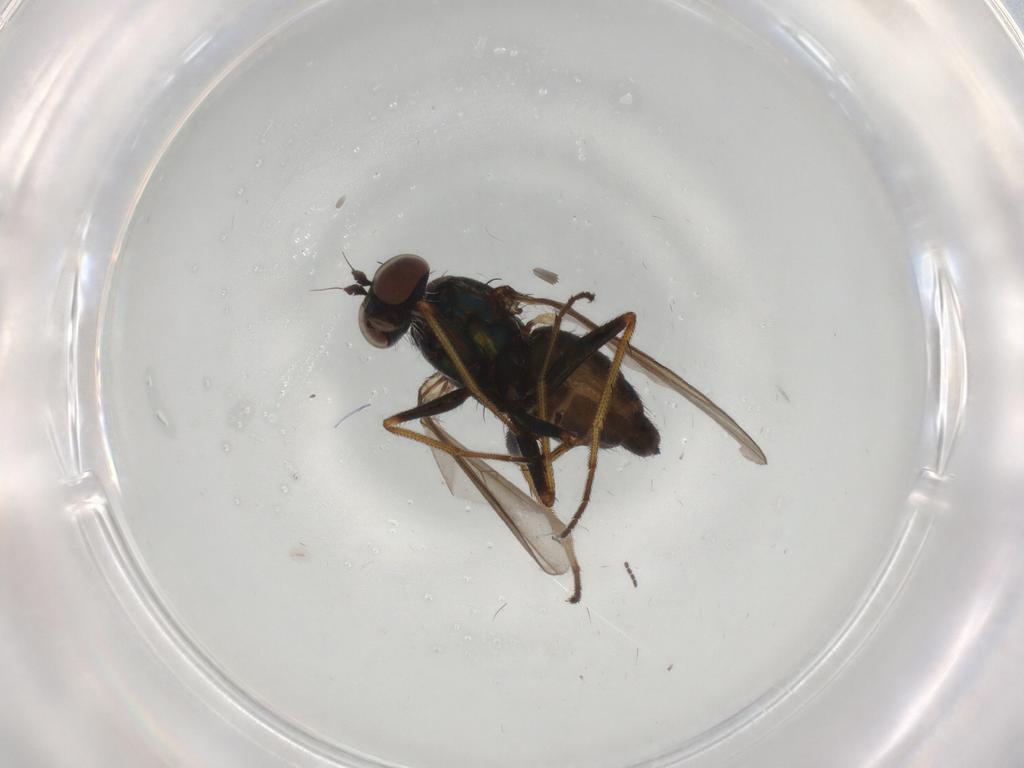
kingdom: Animalia
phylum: Arthropoda
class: Insecta
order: Diptera
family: Dolichopodidae
